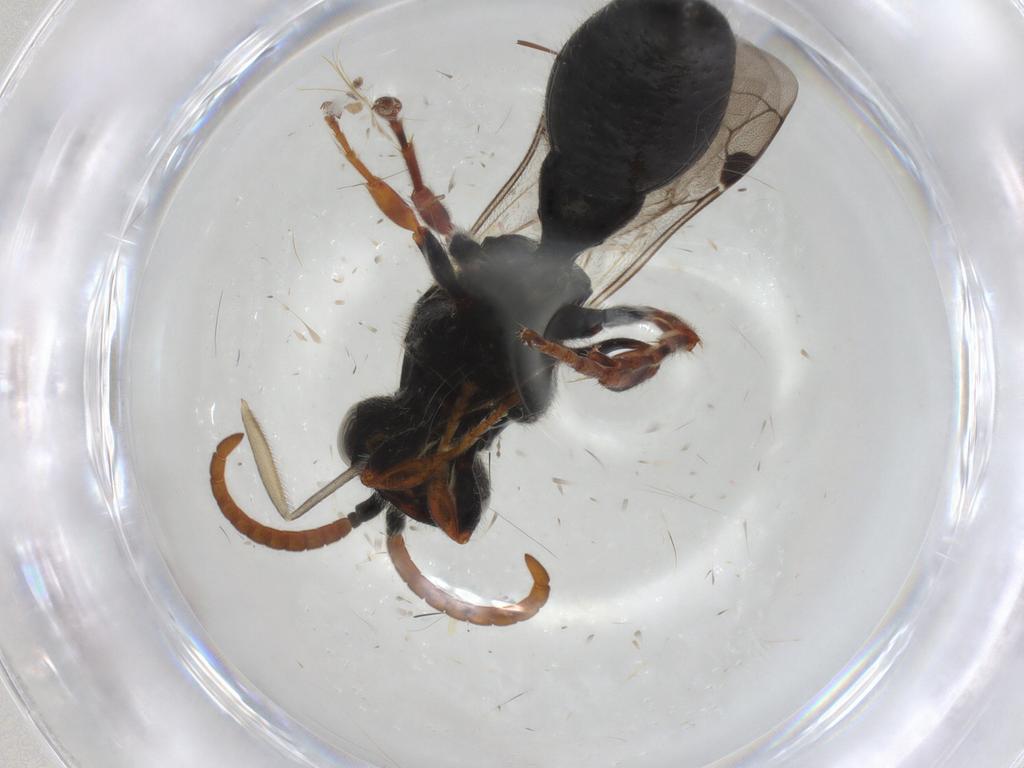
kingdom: Animalia
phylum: Arthropoda
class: Insecta
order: Hymenoptera
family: Tiphiidae
